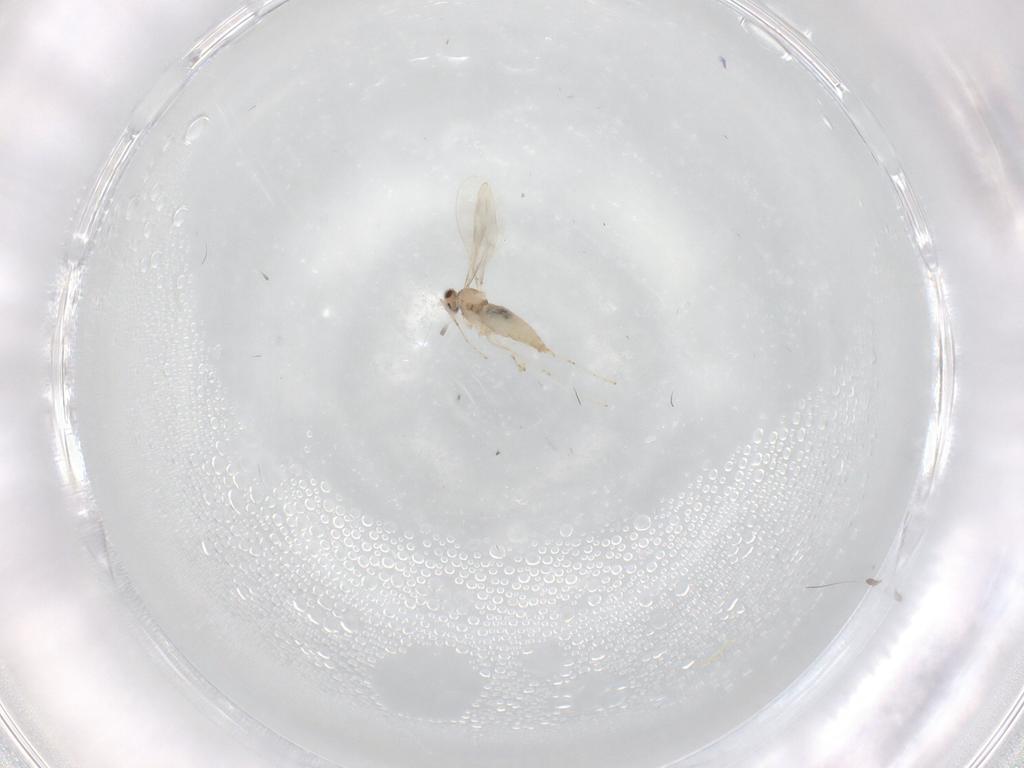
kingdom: Animalia
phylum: Arthropoda
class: Insecta
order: Diptera
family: Cecidomyiidae
